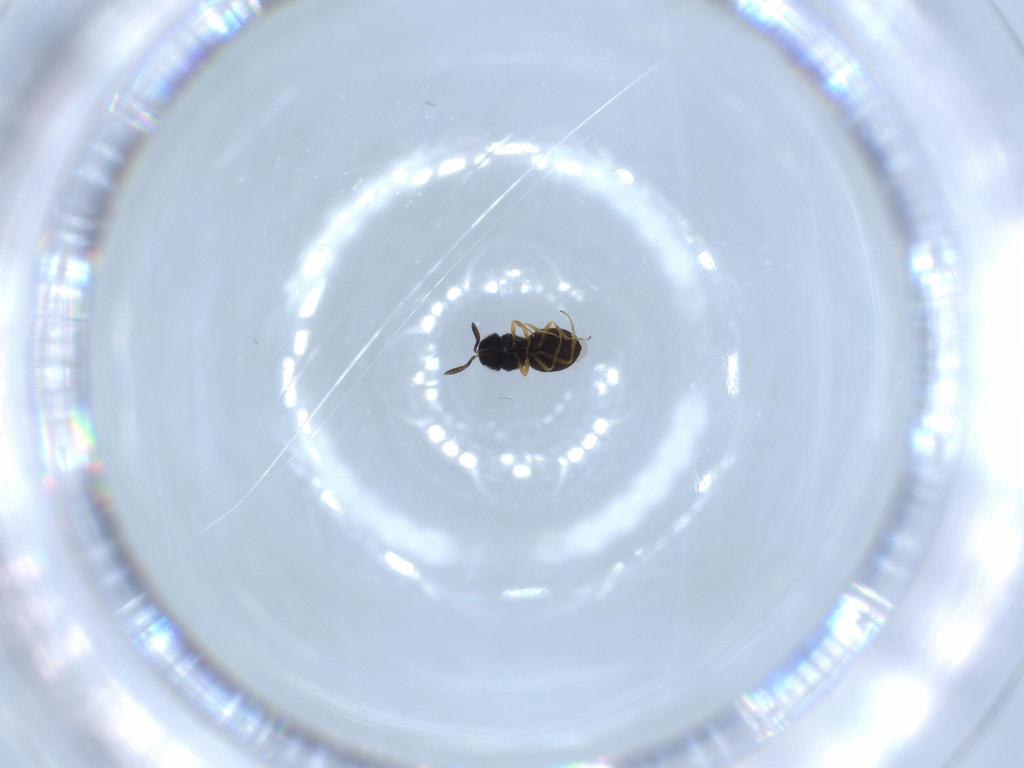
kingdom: Animalia
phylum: Arthropoda
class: Insecta
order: Hymenoptera
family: Scelionidae
